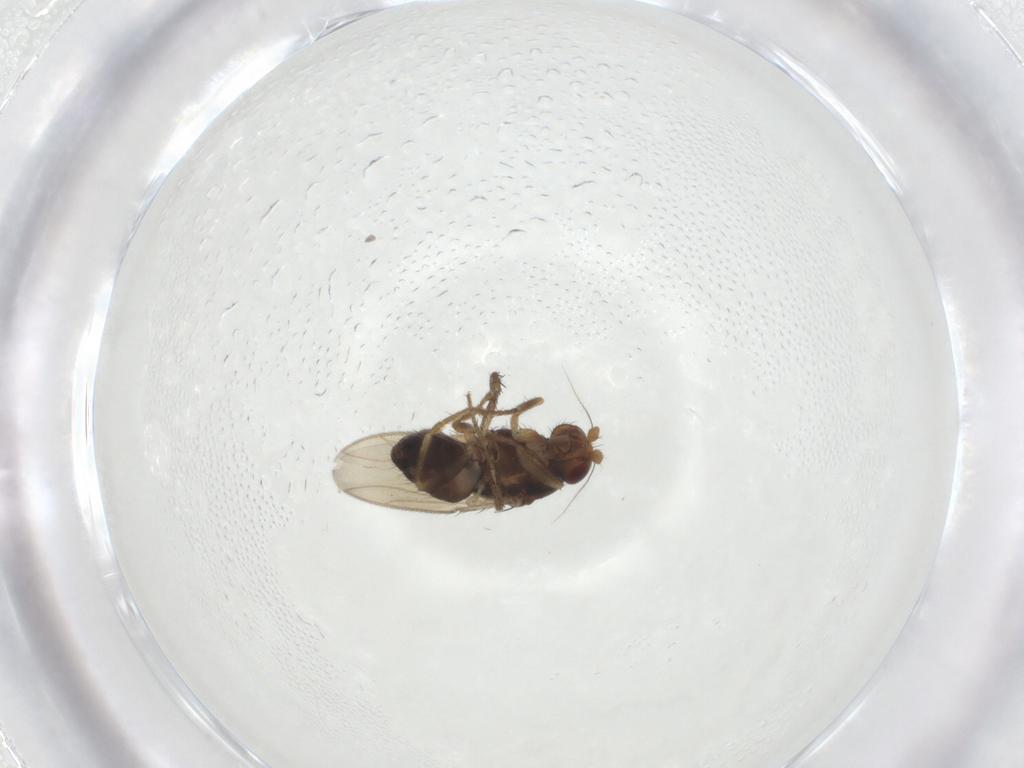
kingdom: Animalia
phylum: Arthropoda
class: Insecta
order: Diptera
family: Sphaeroceridae
